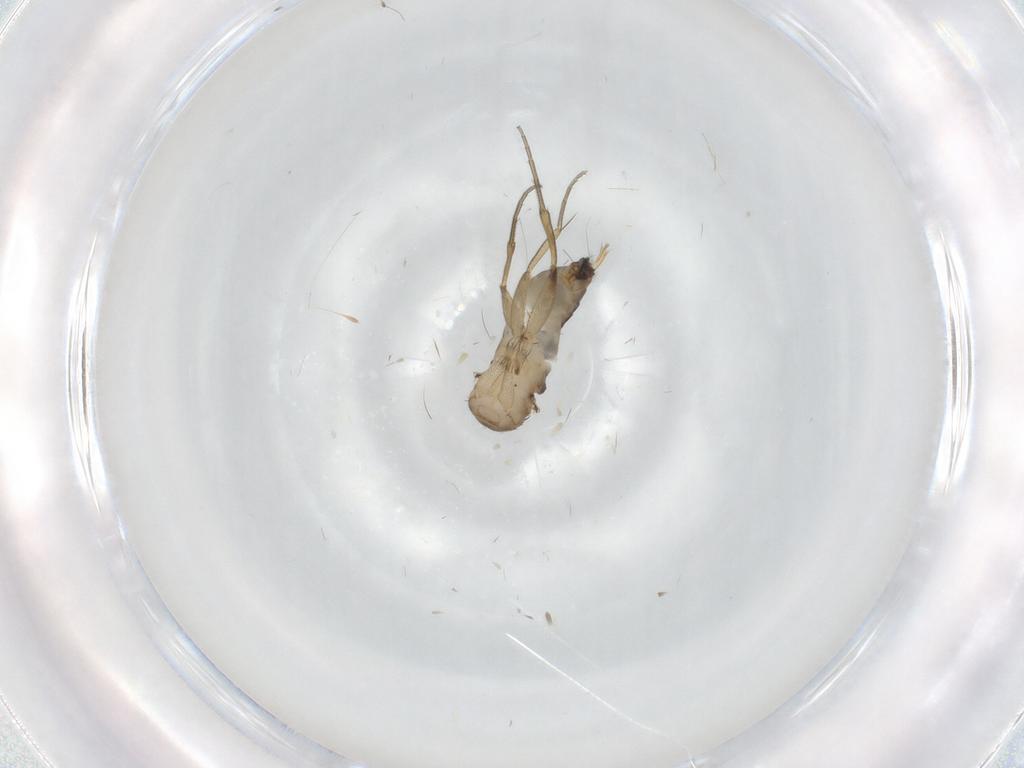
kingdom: Animalia
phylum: Arthropoda
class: Insecta
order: Diptera
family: Phoridae
